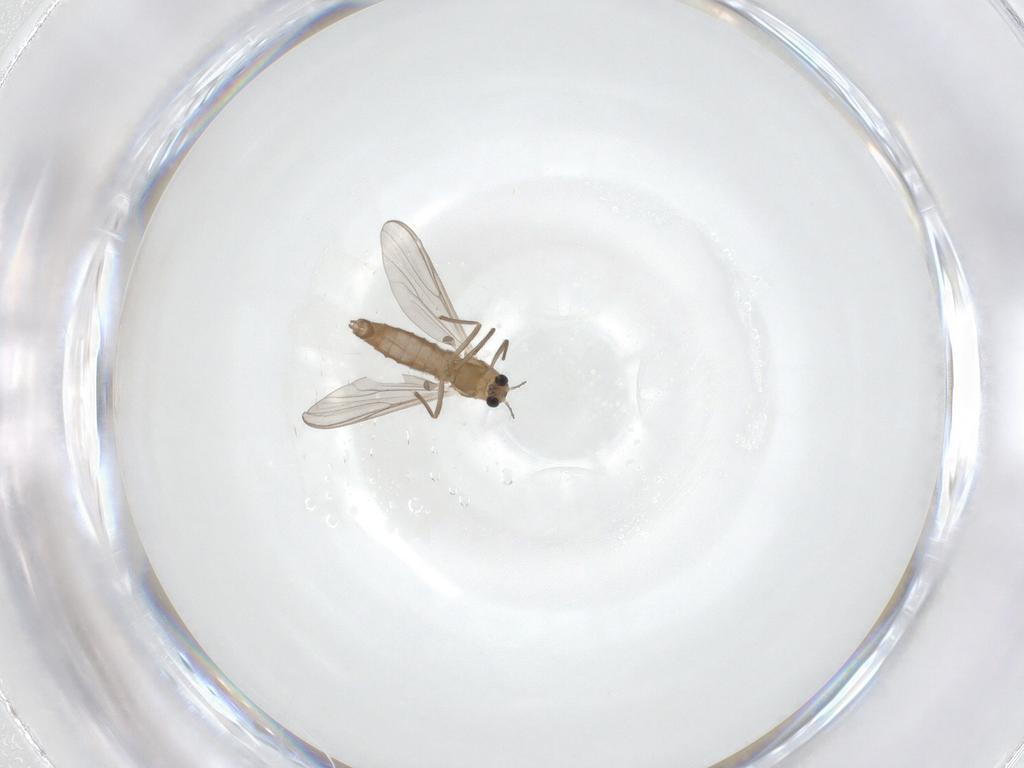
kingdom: Animalia
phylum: Arthropoda
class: Insecta
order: Diptera
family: Chironomidae
